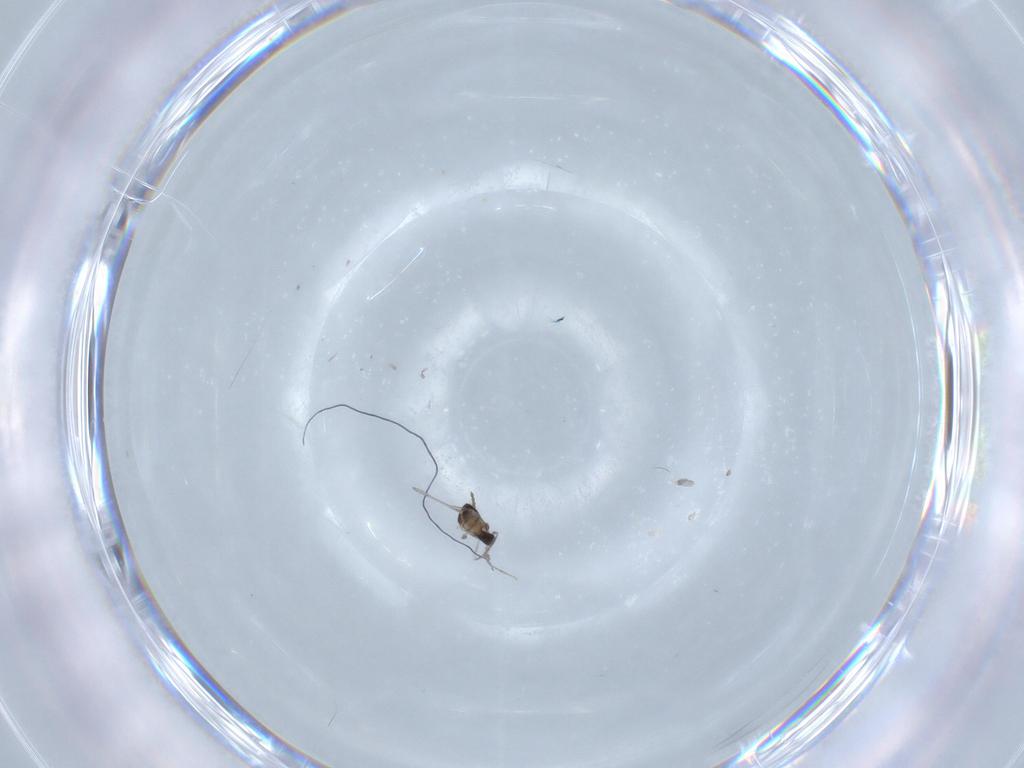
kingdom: Animalia
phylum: Arthropoda
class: Insecta
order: Diptera
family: Cecidomyiidae
